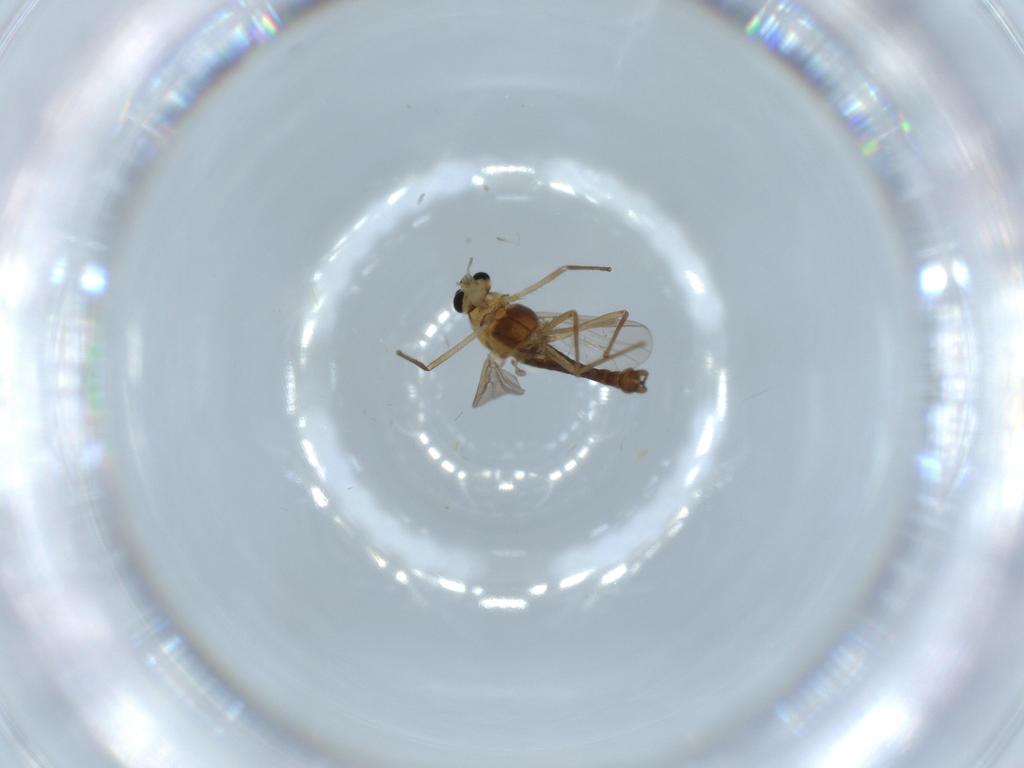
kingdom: Animalia
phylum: Arthropoda
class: Insecta
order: Diptera
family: Chironomidae
